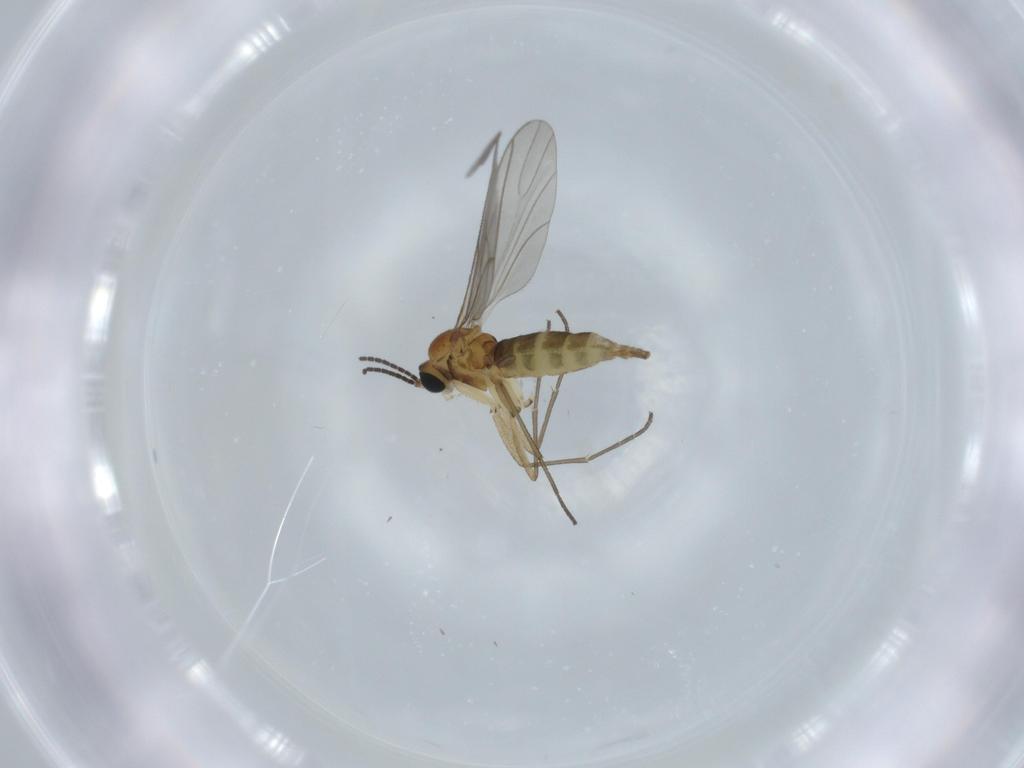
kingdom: Animalia
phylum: Arthropoda
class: Insecta
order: Diptera
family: Sciaridae
